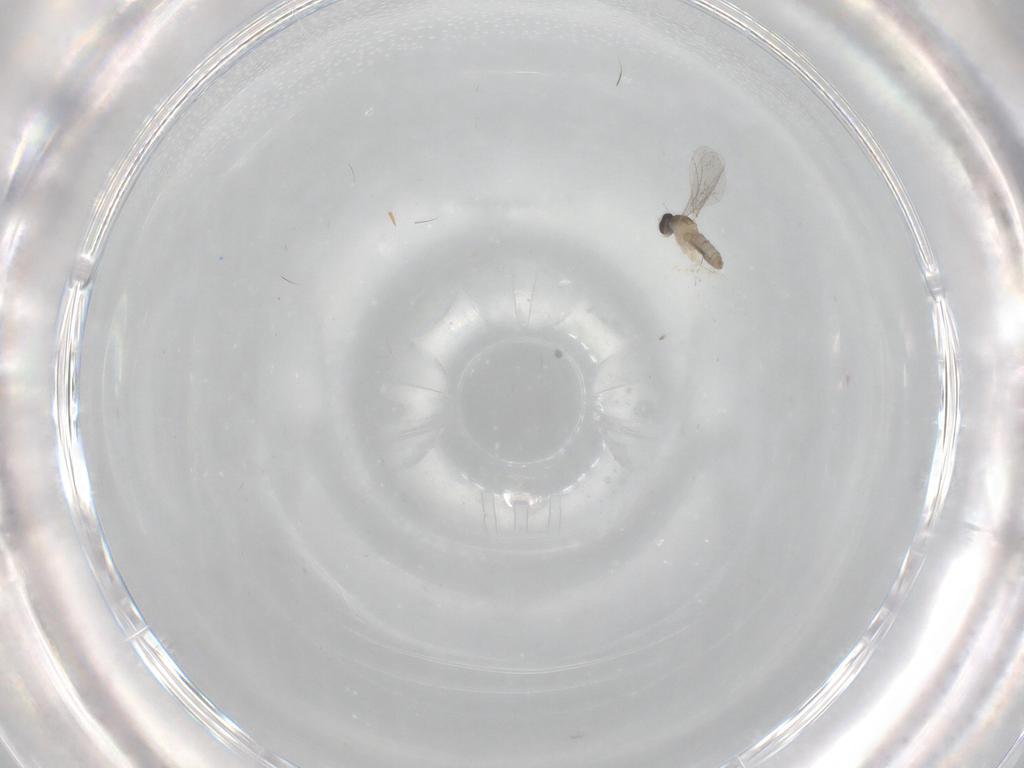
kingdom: Animalia
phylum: Arthropoda
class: Insecta
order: Diptera
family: Cecidomyiidae
